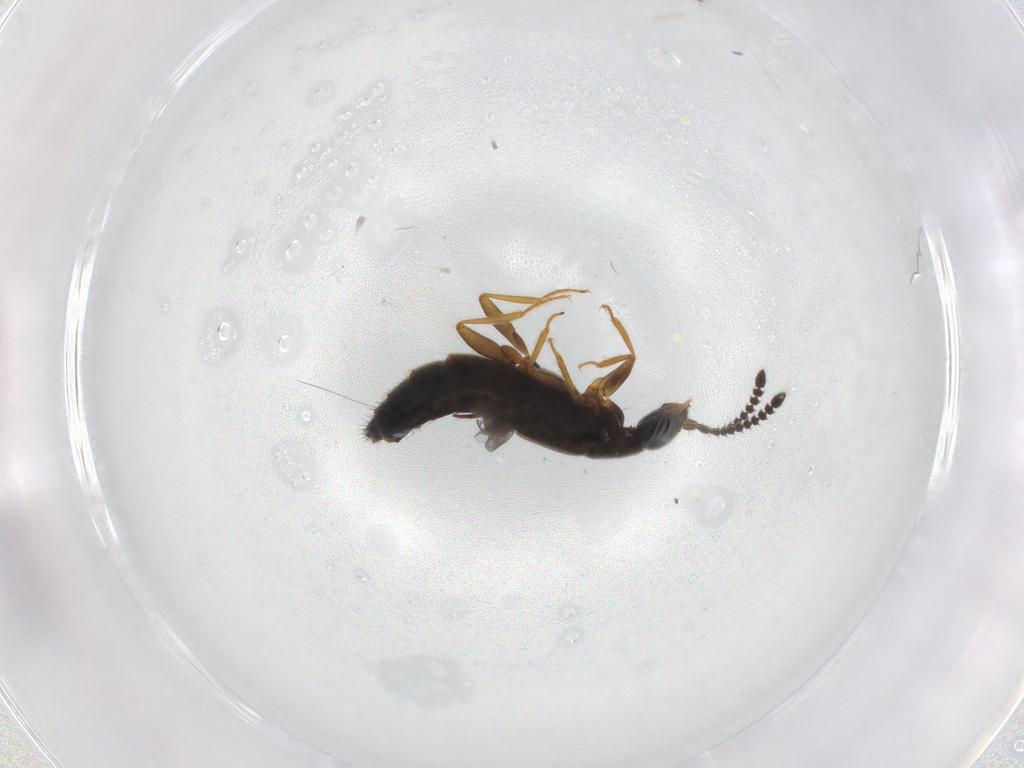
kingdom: Animalia
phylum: Arthropoda
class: Insecta
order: Coleoptera
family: Staphylinidae
